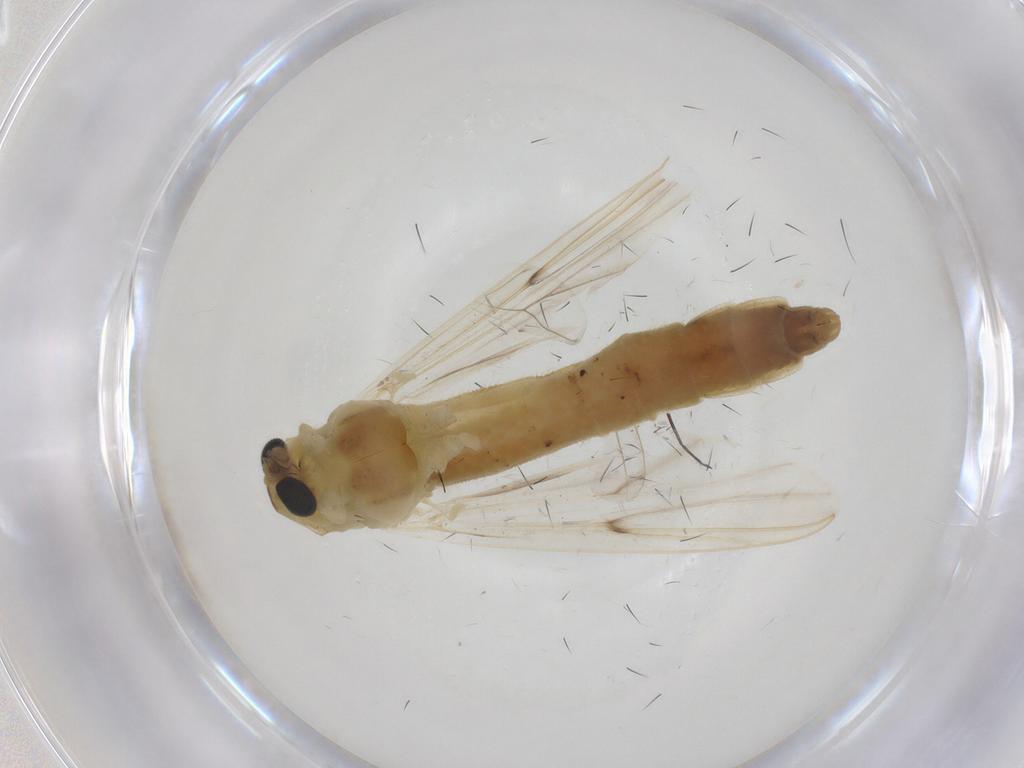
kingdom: Animalia
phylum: Arthropoda
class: Insecta
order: Diptera
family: Chironomidae
